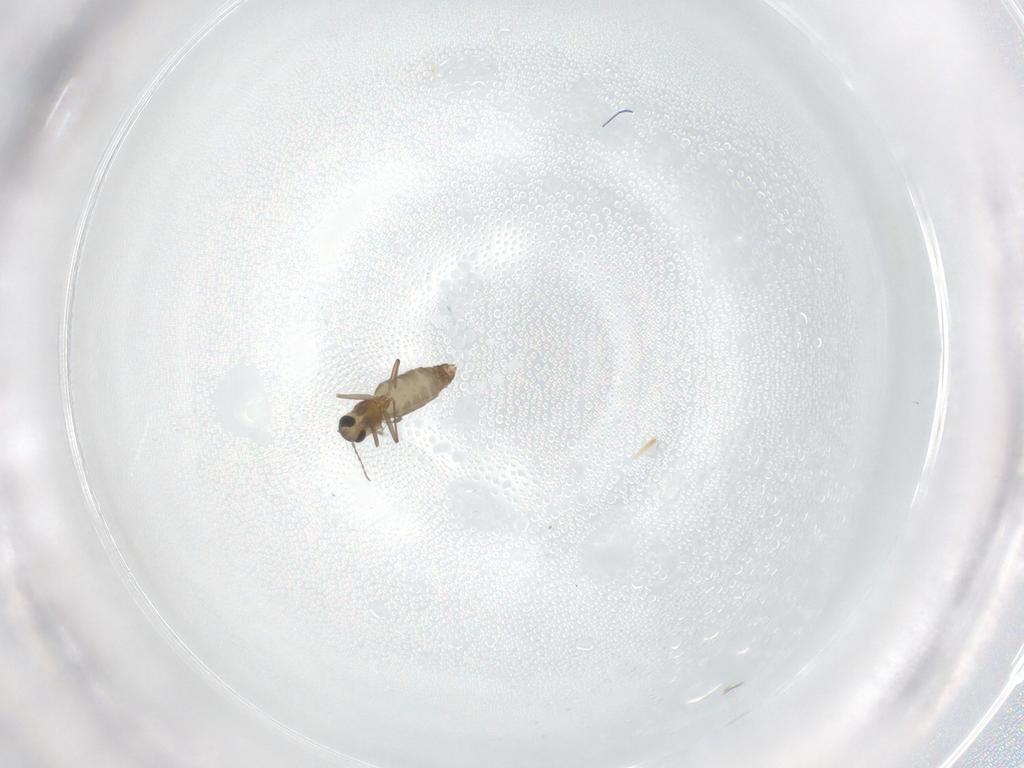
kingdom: Animalia
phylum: Arthropoda
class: Insecta
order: Diptera
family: Chironomidae
